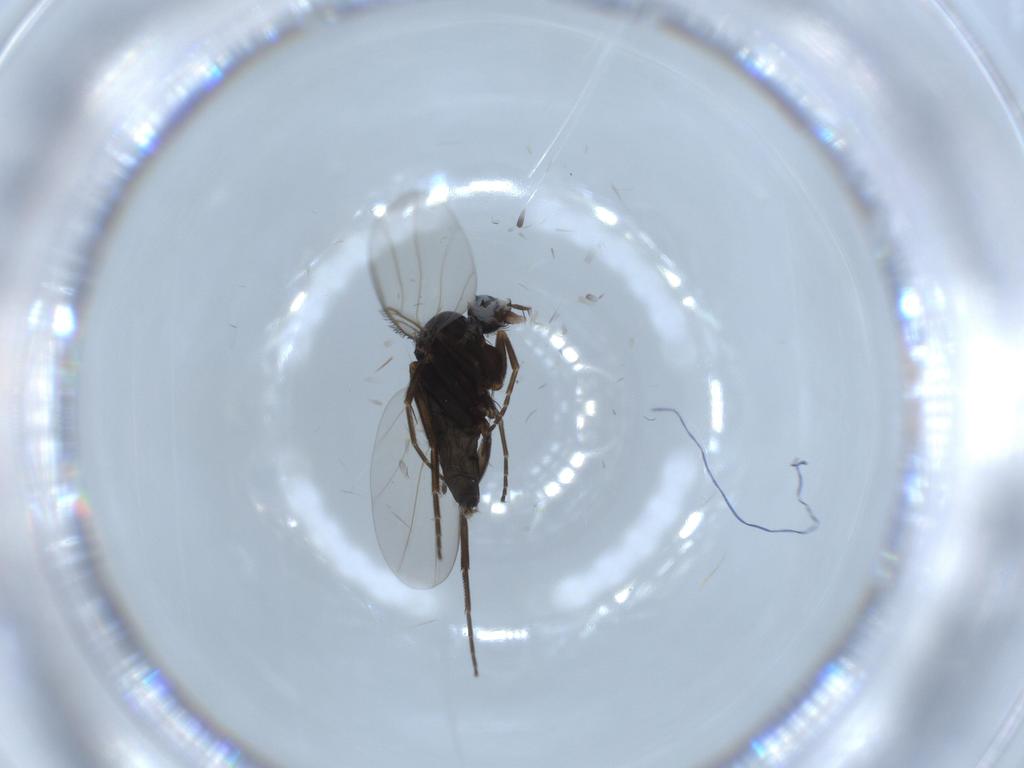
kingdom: Animalia
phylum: Arthropoda
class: Insecta
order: Diptera
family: Phoridae
